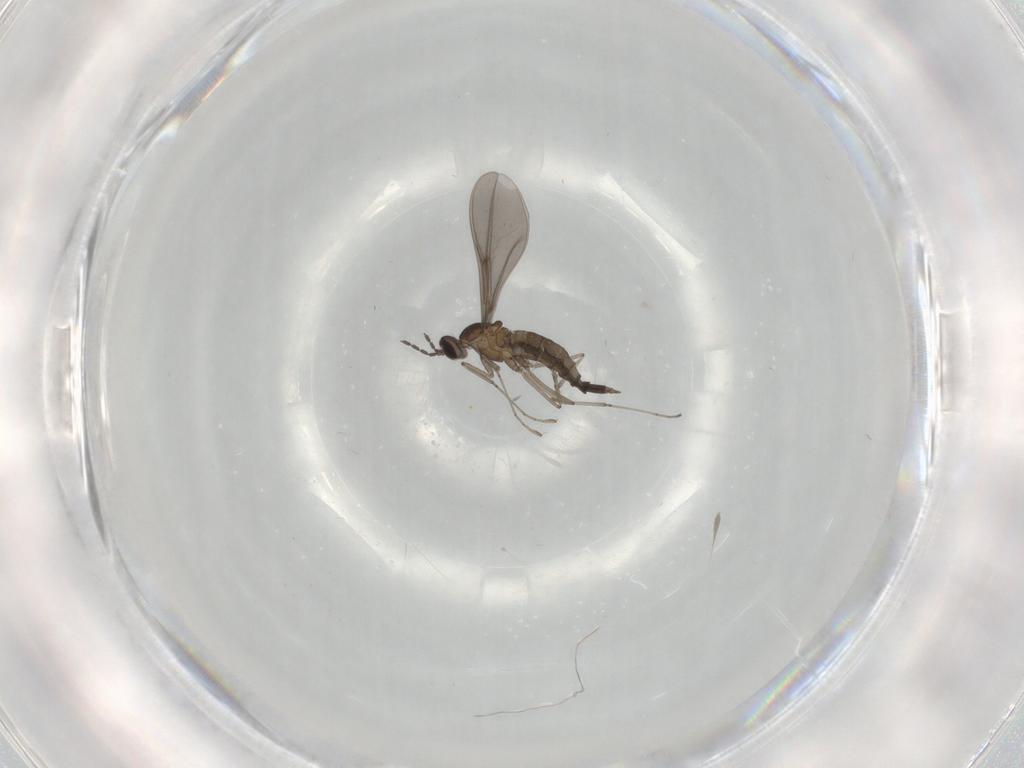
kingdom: Animalia
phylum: Arthropoda
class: Insecta
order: Diptera
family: Cecidomyiidae
